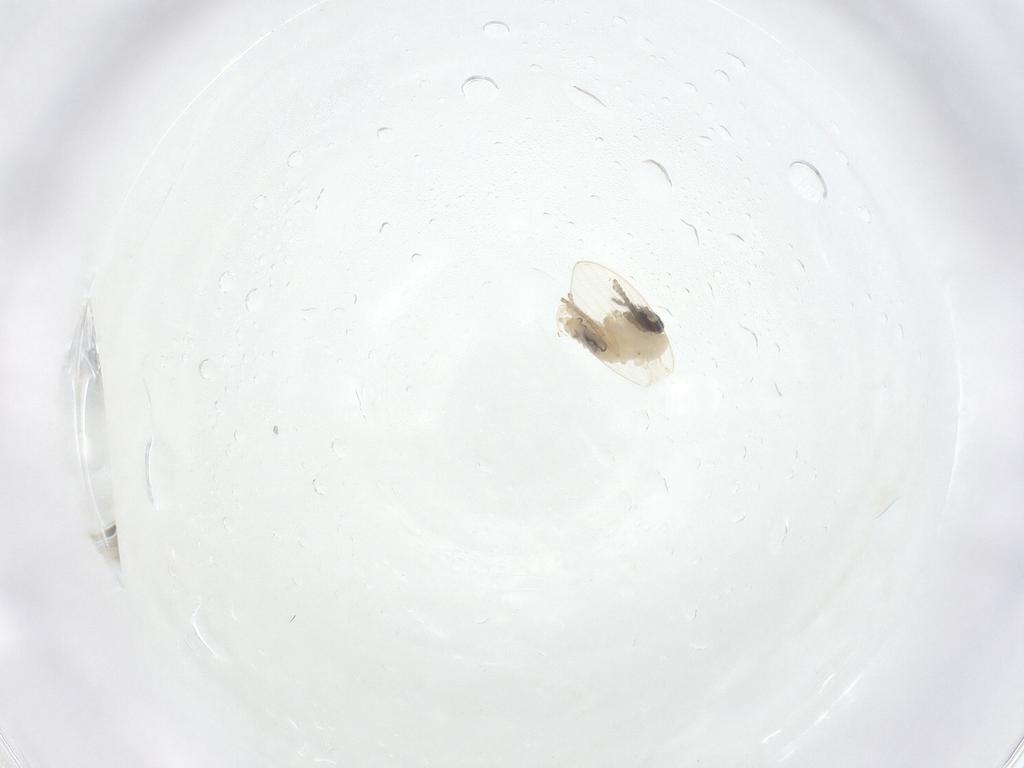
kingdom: Animalia
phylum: Arthropoda
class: Insecta
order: Diptera
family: Psychodidae
